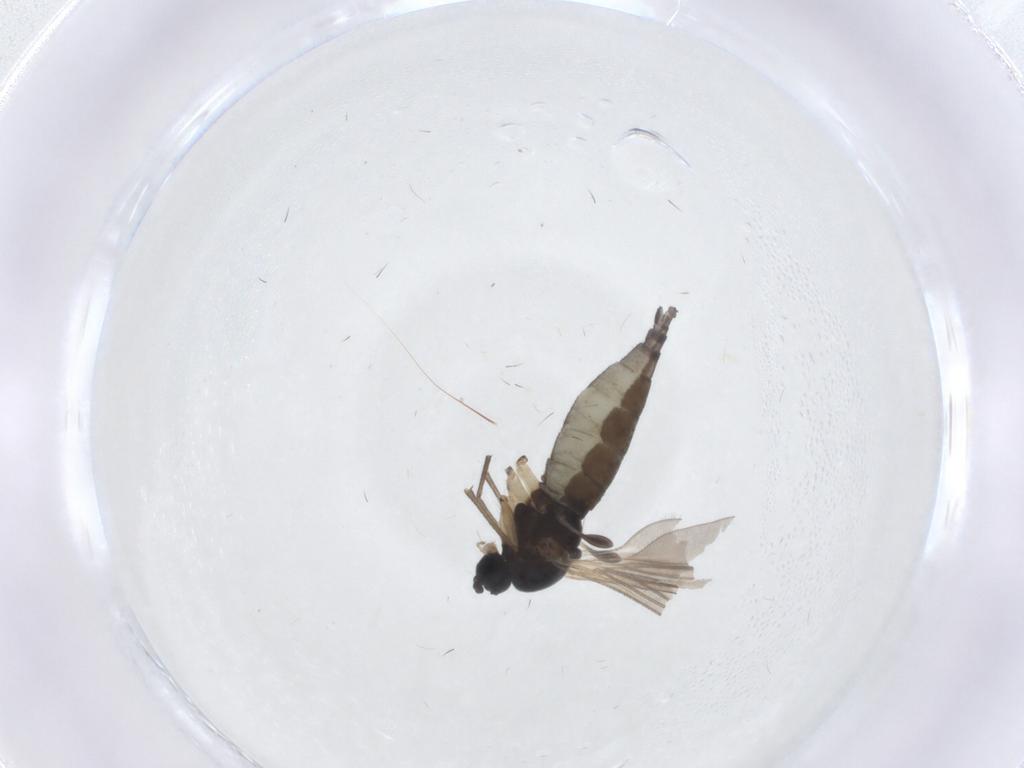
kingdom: Animalia
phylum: Arthropoda
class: Insecta
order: Diptera
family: Sciaridae
